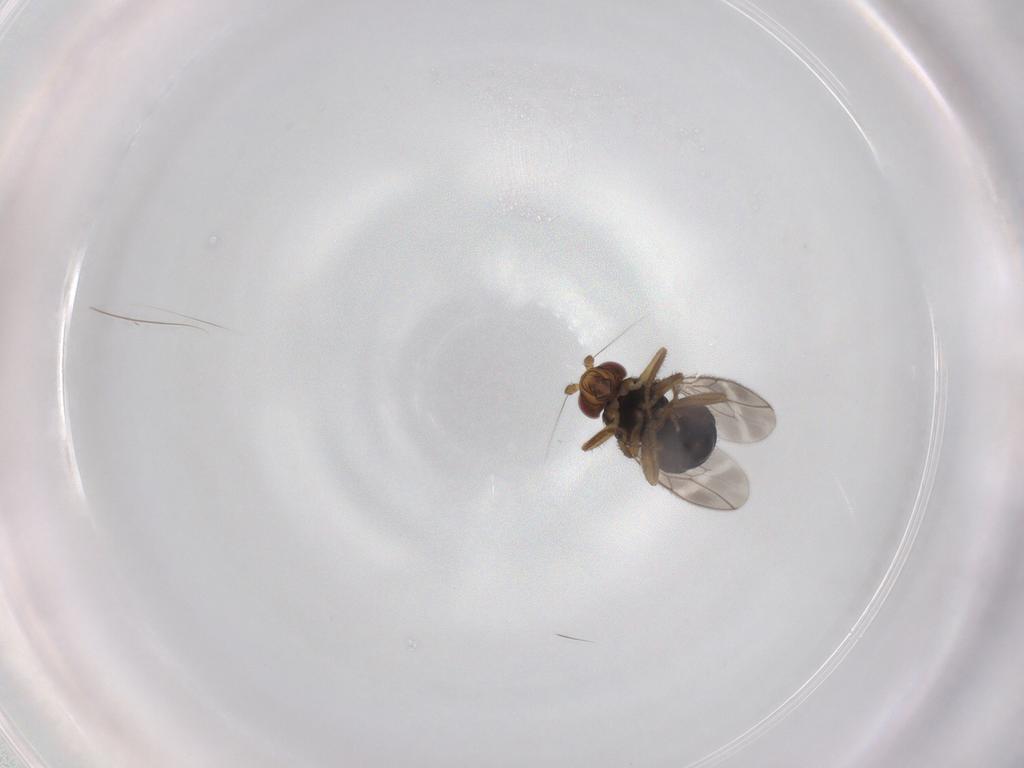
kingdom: Animalia
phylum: Arthropoda
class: Insecta
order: Diptera
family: Sphaeroceridae
